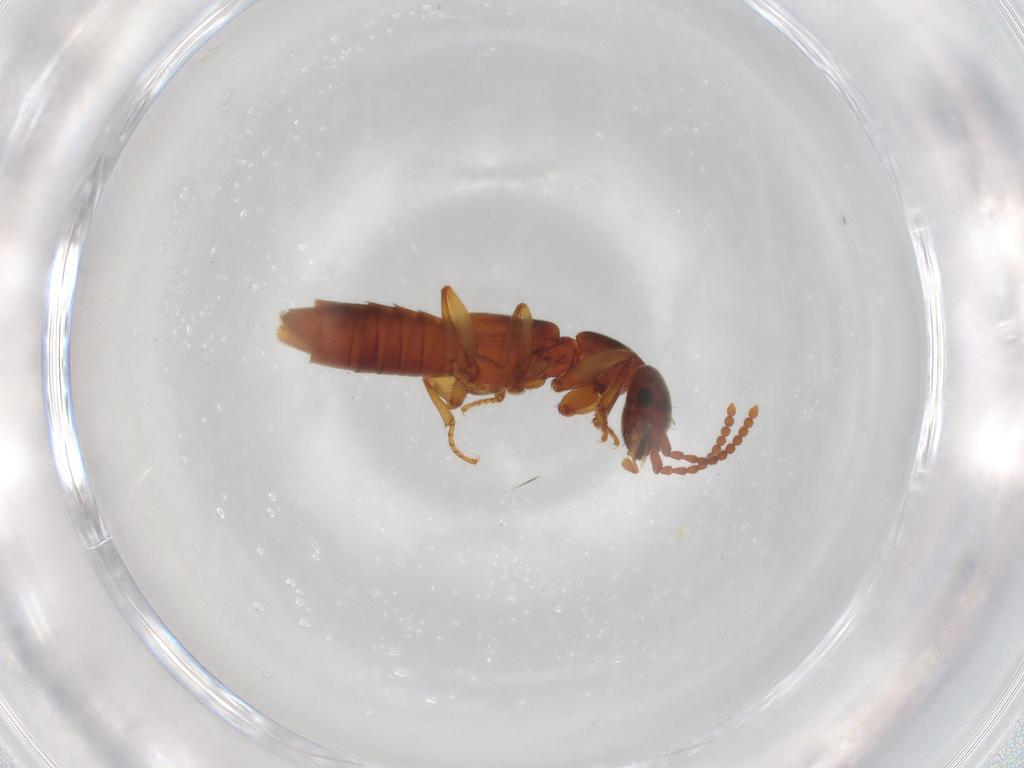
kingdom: Animalia
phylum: Arthropoda
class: Insecta
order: Coleoptera
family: Staphylinidae
